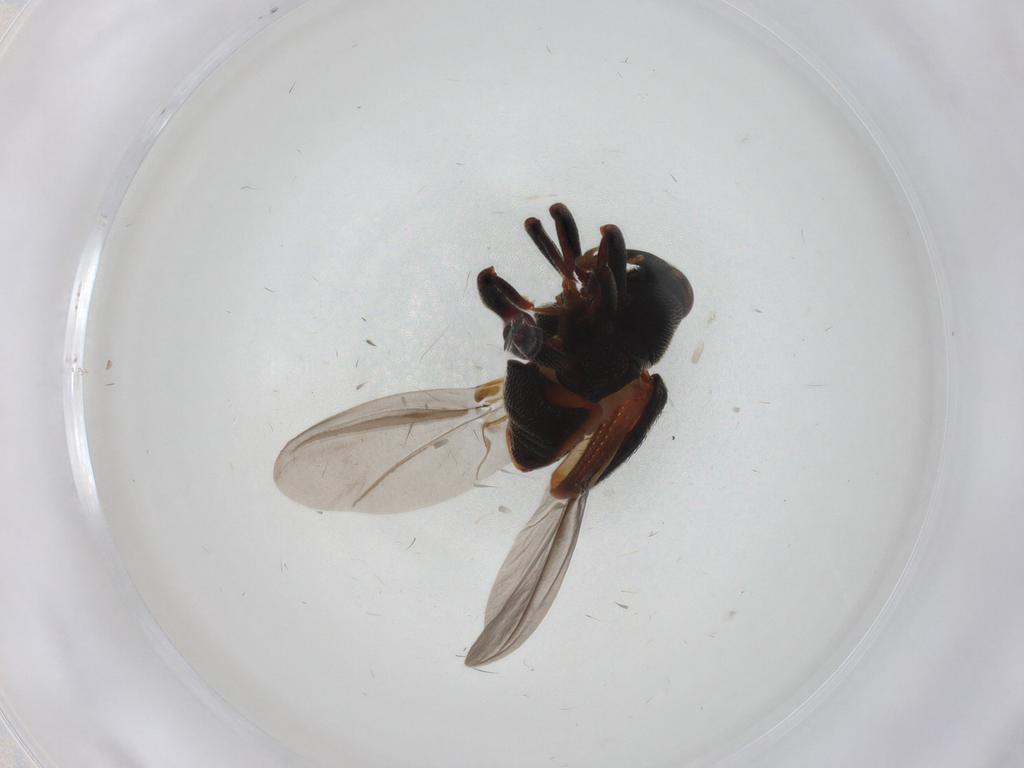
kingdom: Animalia
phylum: Arthropoda
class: Insecta
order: Coleoptera
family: Curculionidae
